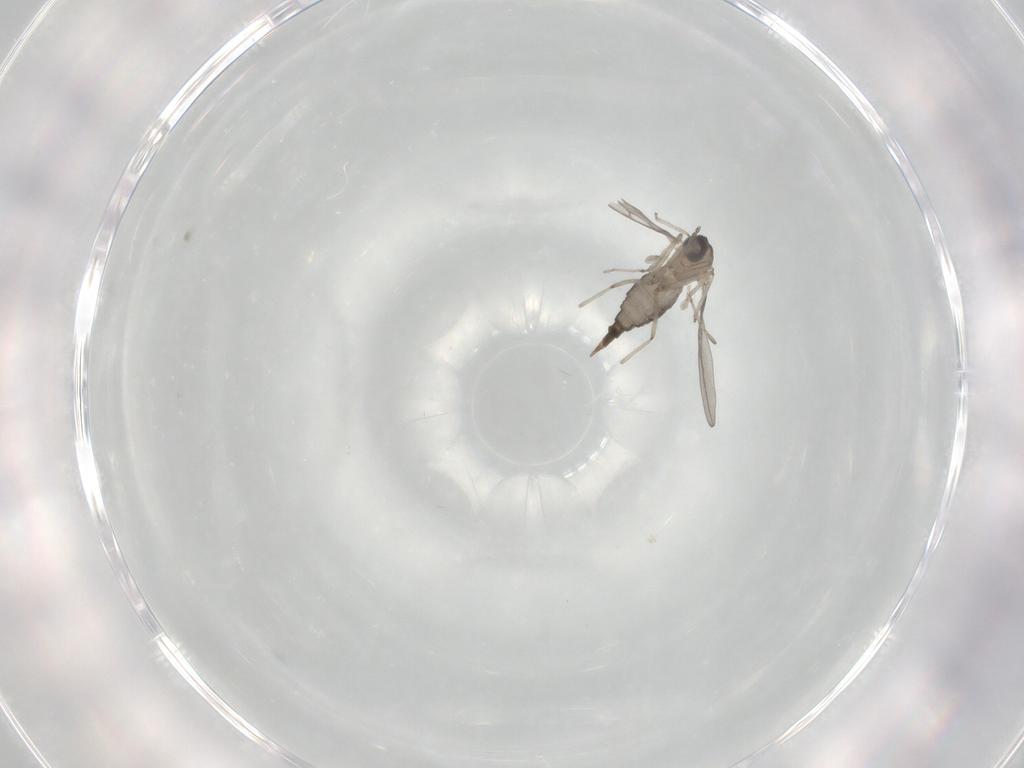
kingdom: Animalia
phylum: Arthropoda
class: Insecta
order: Diptera
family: Cecidomyiidae
